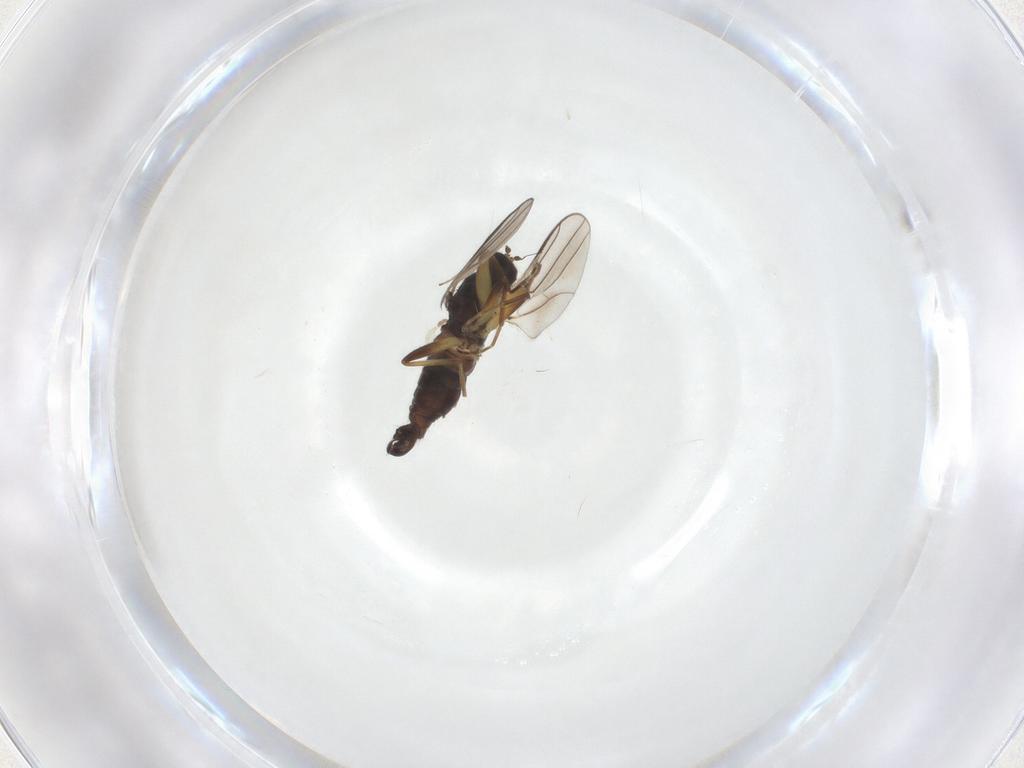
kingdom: Animalia
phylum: Arthropoda
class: Insecta
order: Diptera
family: Hybotidae
